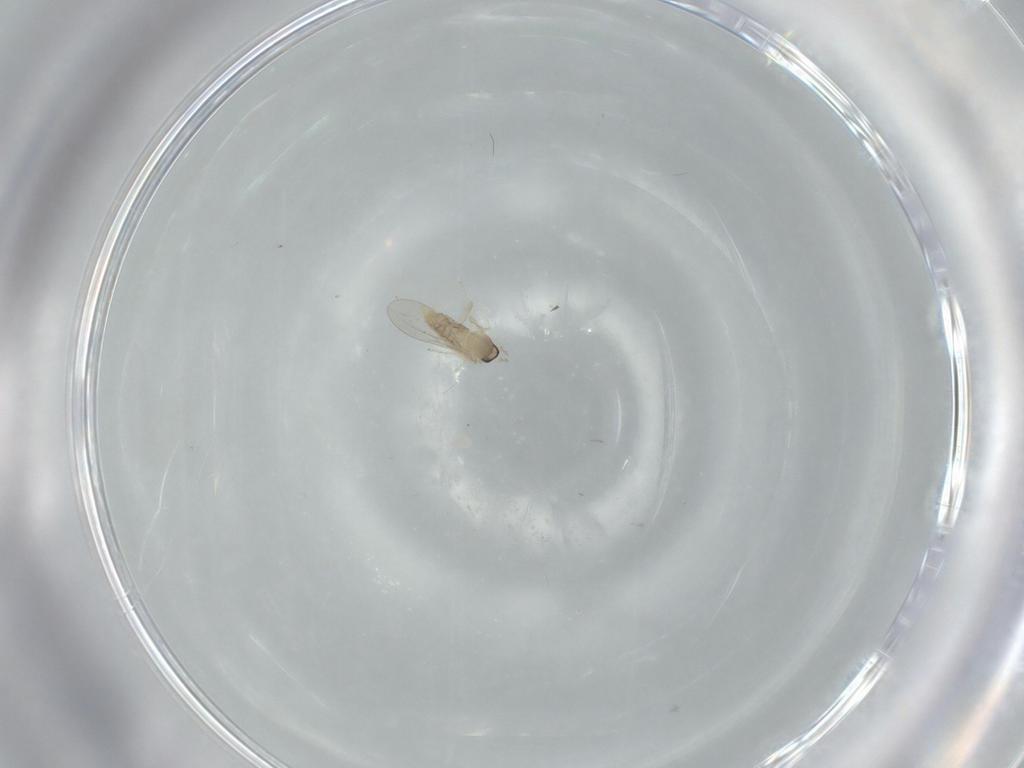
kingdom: Animalia
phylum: Arthropoda
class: Insecta
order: Diptera
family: Cecidomyiidae
